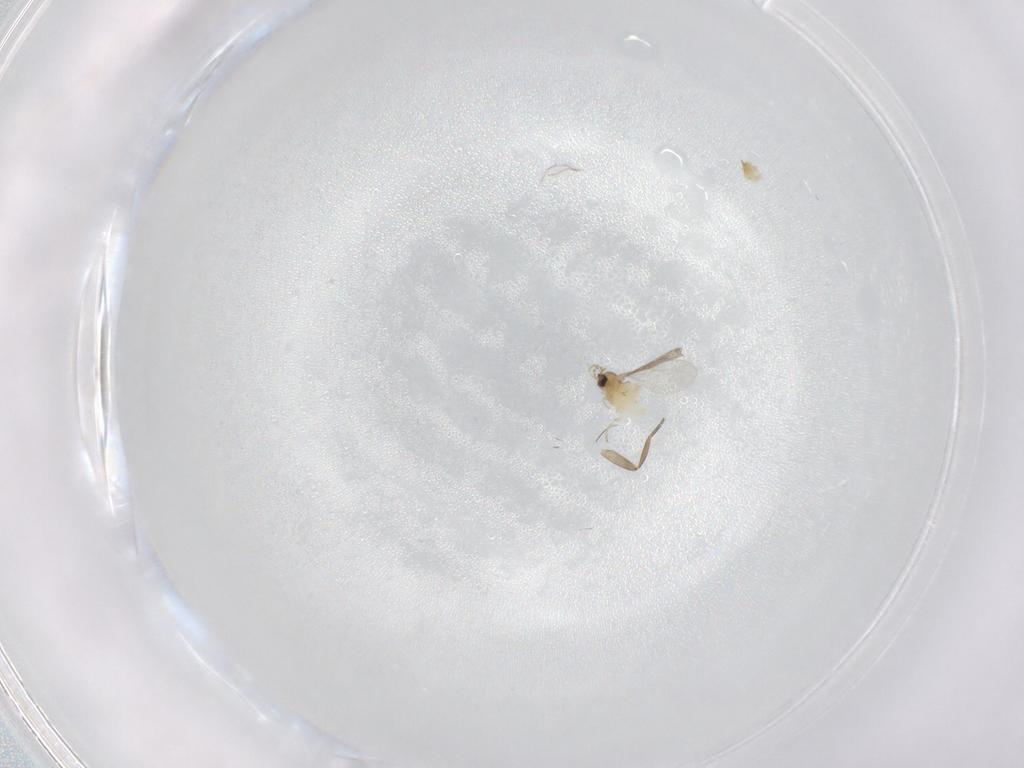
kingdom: Animalia
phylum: Arthropoda
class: Insecta
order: Diptera
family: Phoridae
